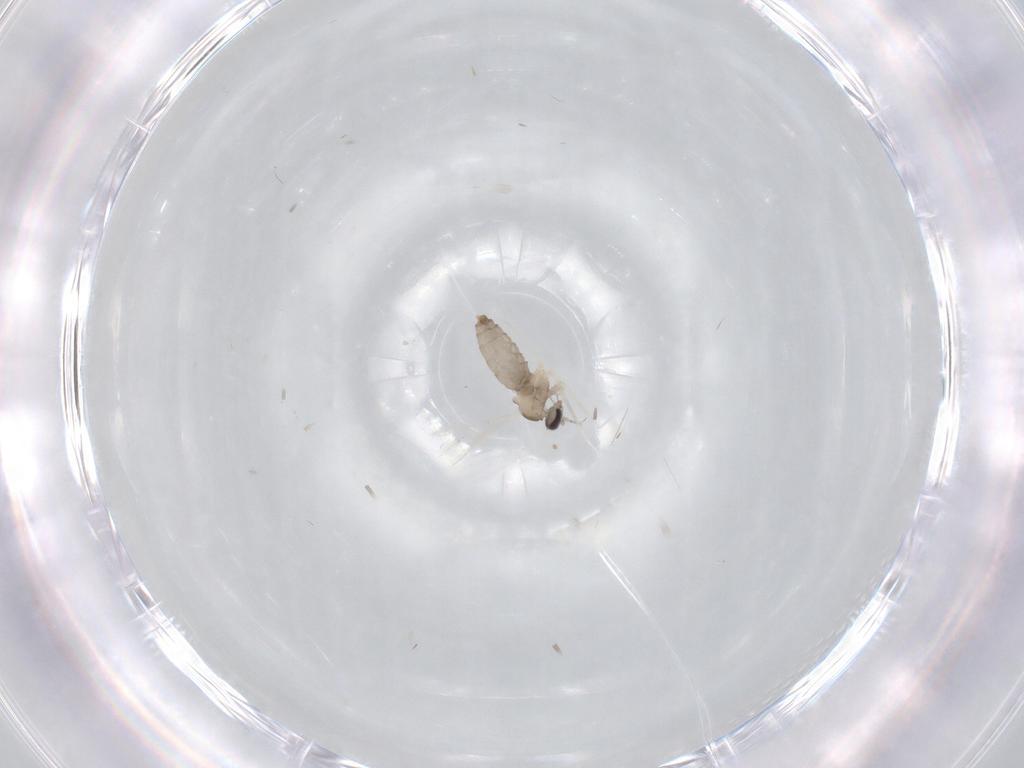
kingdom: Animalia
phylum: Arthropoda
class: Insecta
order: Diptera
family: Cecidomyiidae
